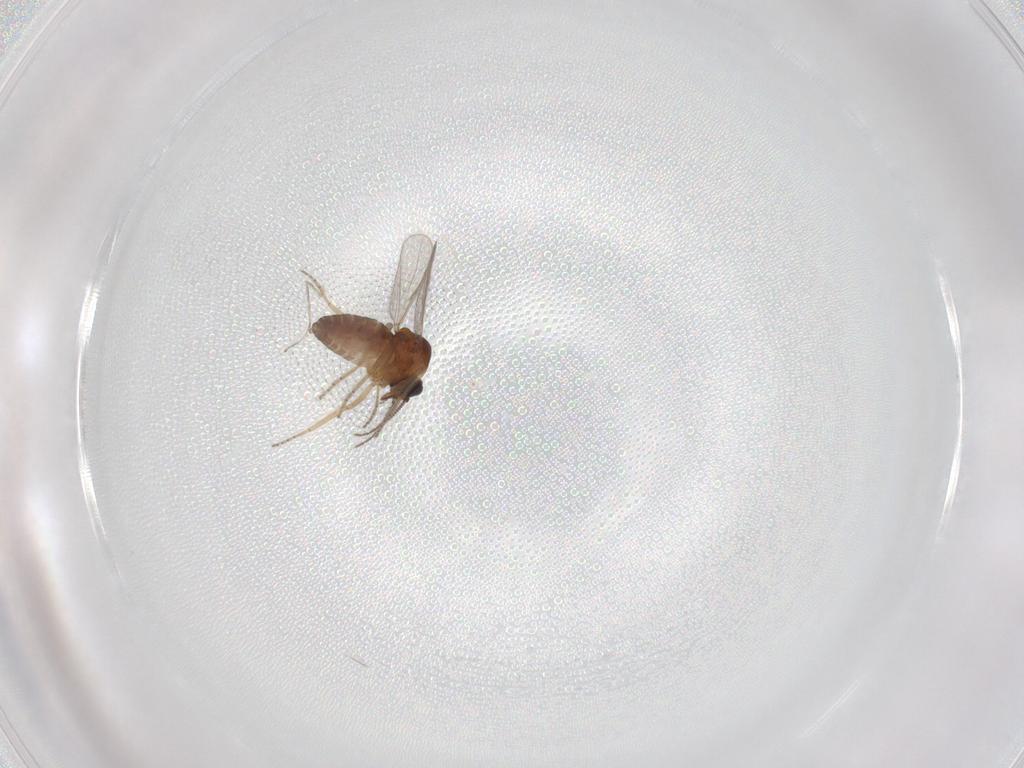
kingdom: Animalia
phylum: Arthropoda
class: Insecta
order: Diptera
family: Ceratopogonidae
